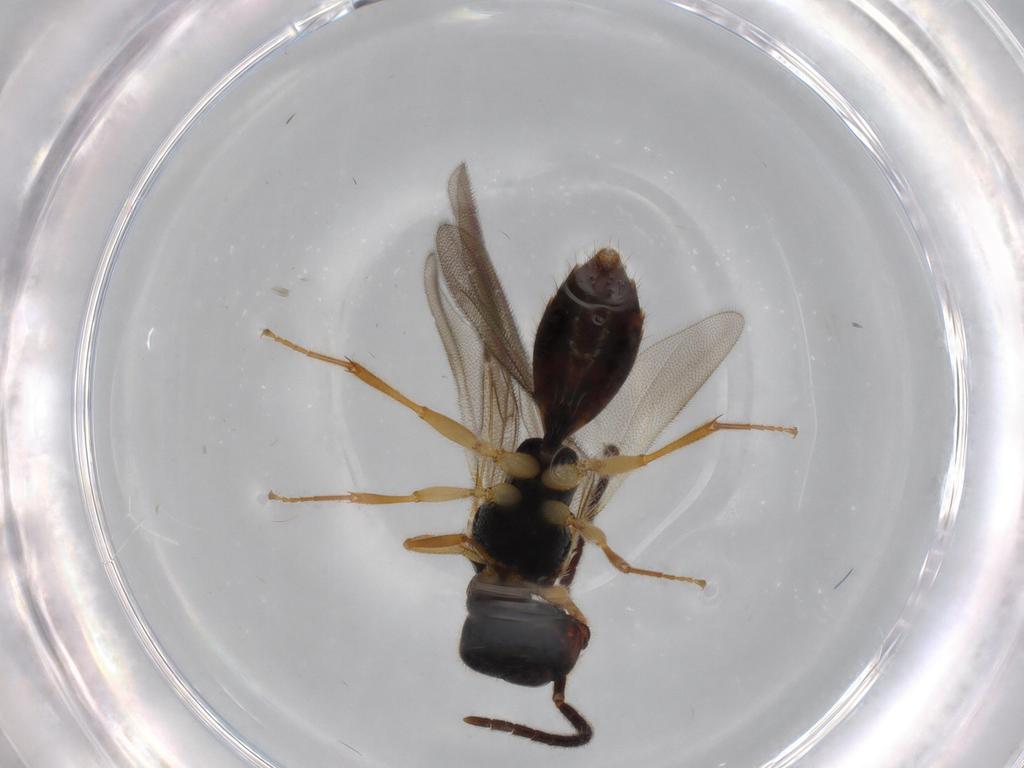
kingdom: Animalia
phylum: Arthropoda
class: Insecta
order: Hymenoptera
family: Bethylidae
